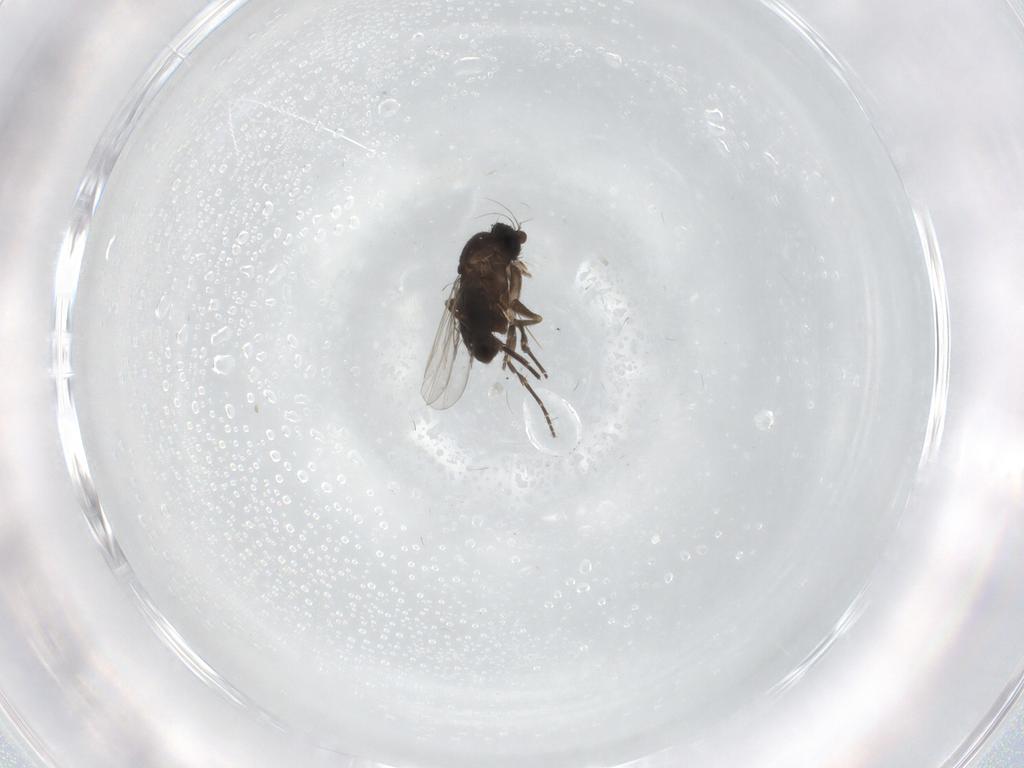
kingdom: Animalia
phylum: Arthropoda
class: Insecta
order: Diptera
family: Phoridae
